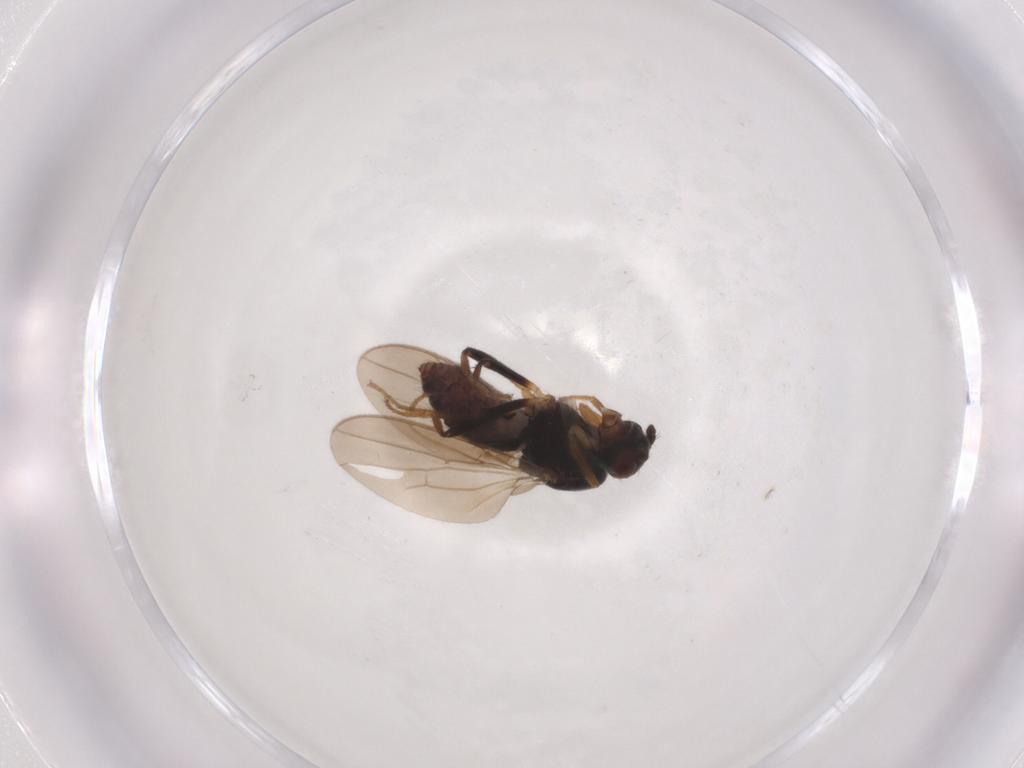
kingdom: Animalia
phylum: Arthropoda
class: Insecta
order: Diptera
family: Sphaeroceridae
